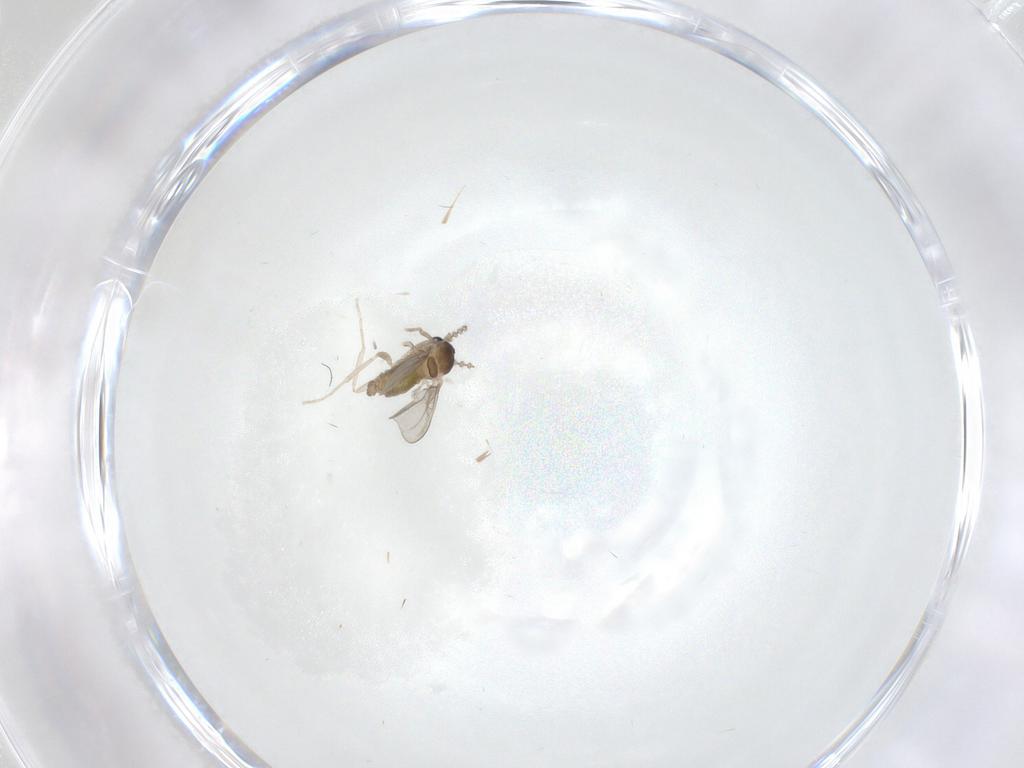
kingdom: Animalia
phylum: Arthropoda
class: Insecta
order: Diptera
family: Cecidomyiidae
